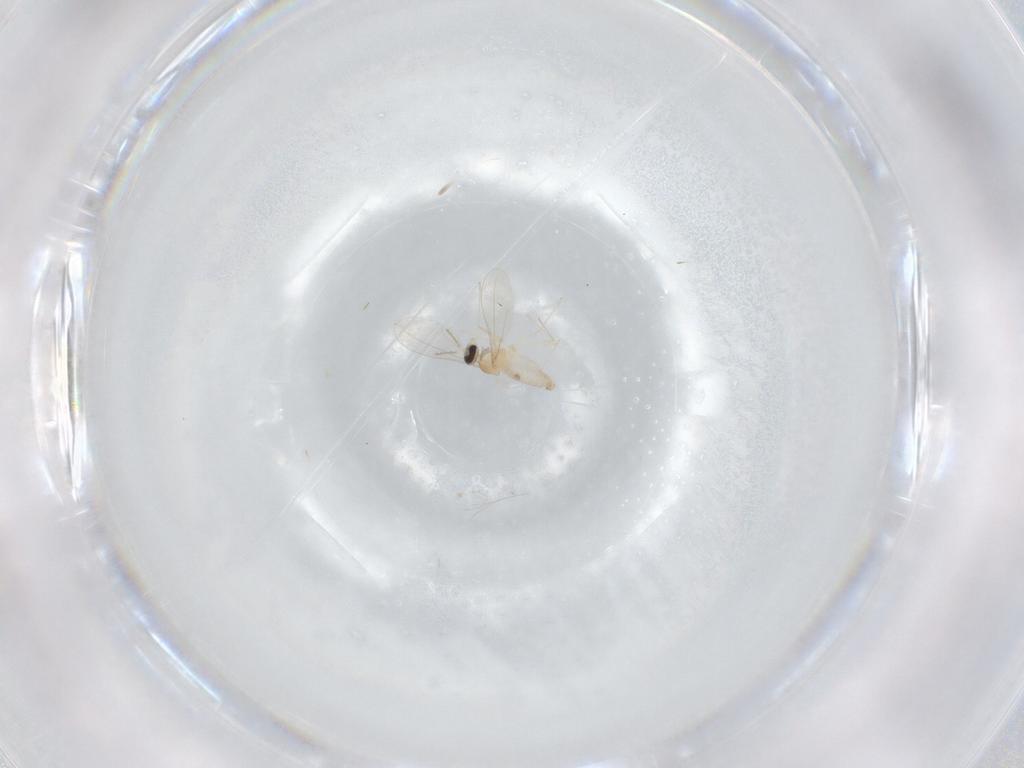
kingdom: Animalia
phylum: Arthropoda
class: Insecta
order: Diptera
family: Cecidomyiidae
